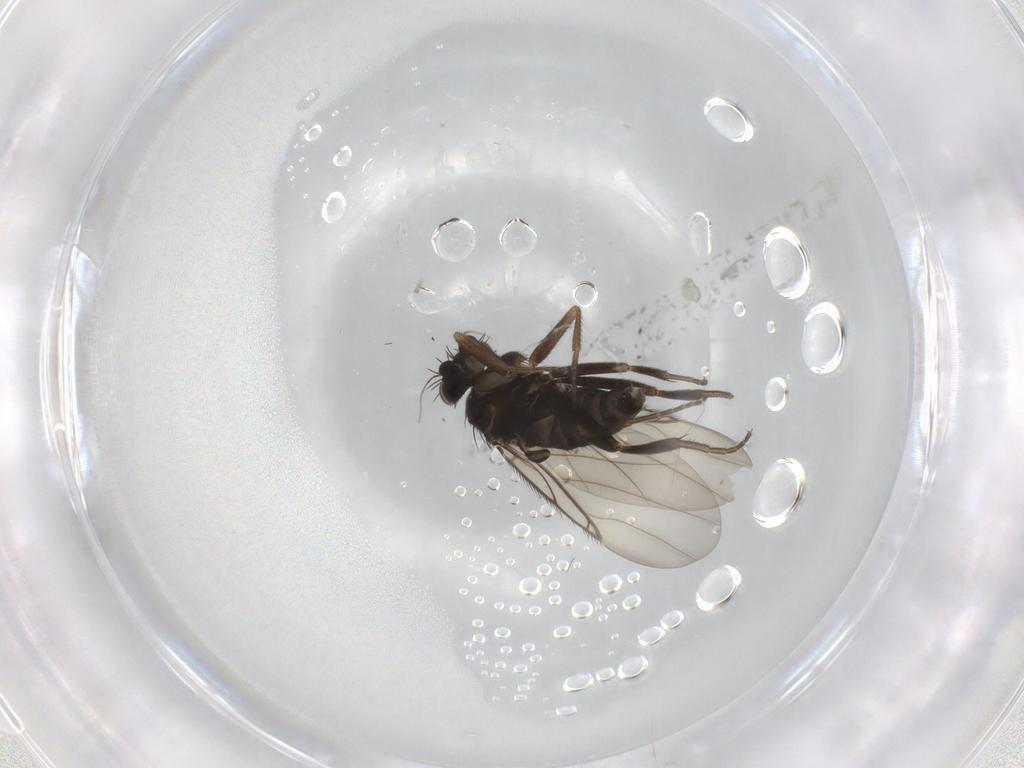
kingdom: Animalia
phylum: Arthropoda
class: Insecta
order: Diptera
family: Phoridae
